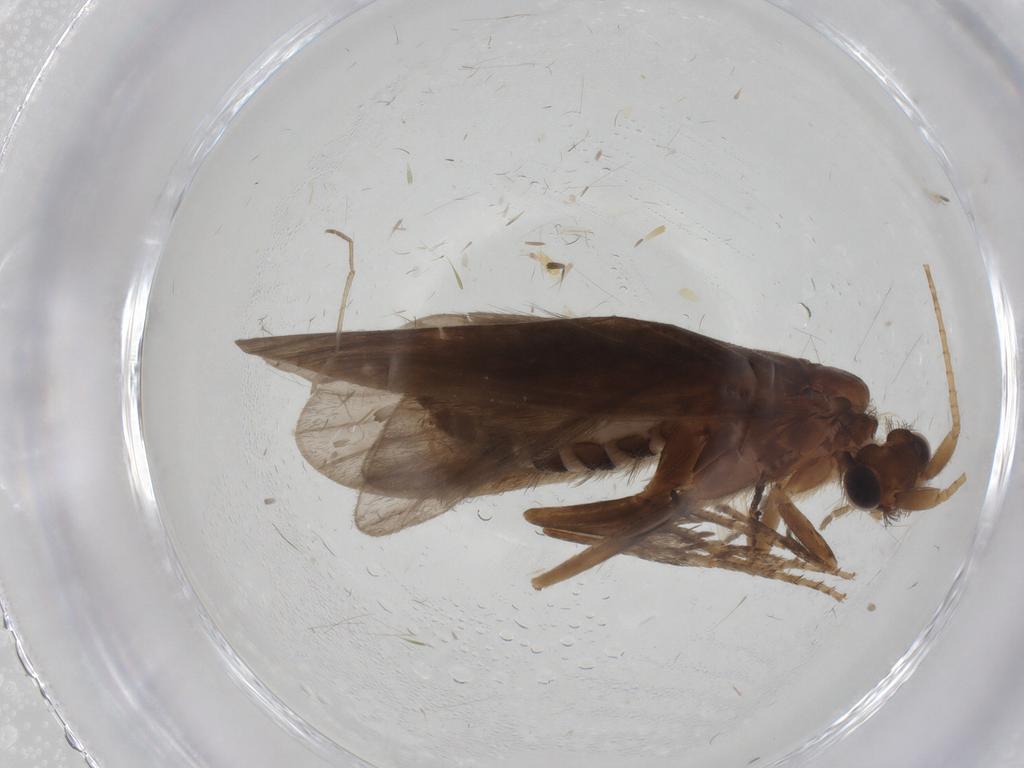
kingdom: Animalia
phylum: Arthropoda
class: Insecta
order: Trichoptera
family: Helicopsychidae
